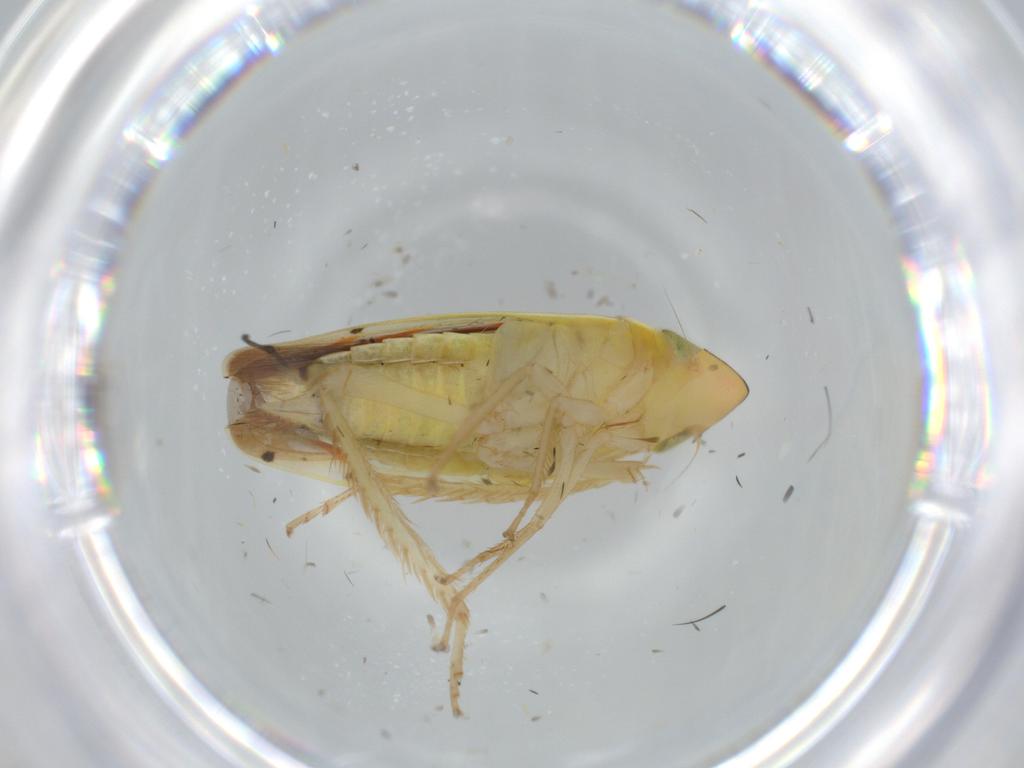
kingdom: Animalia
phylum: Arthropoda
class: Insecta
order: Hemiptera
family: Cicadellidae
